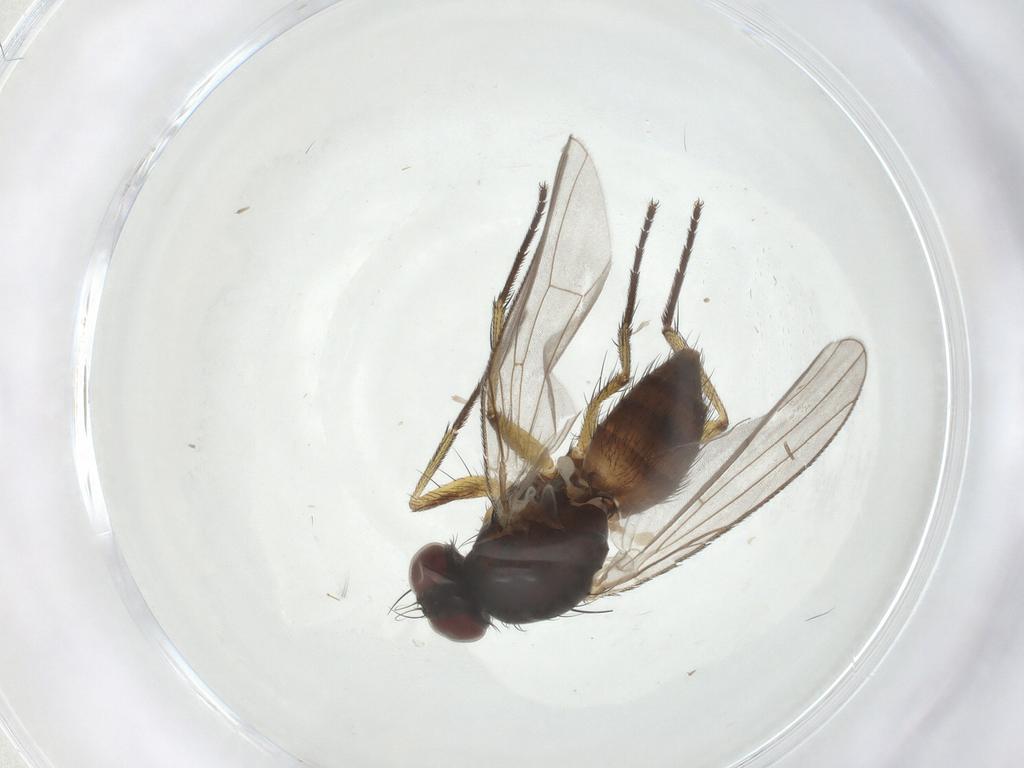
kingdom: Animalia
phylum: Arthropoda
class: Insecta
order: Diptera
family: Muscidae
